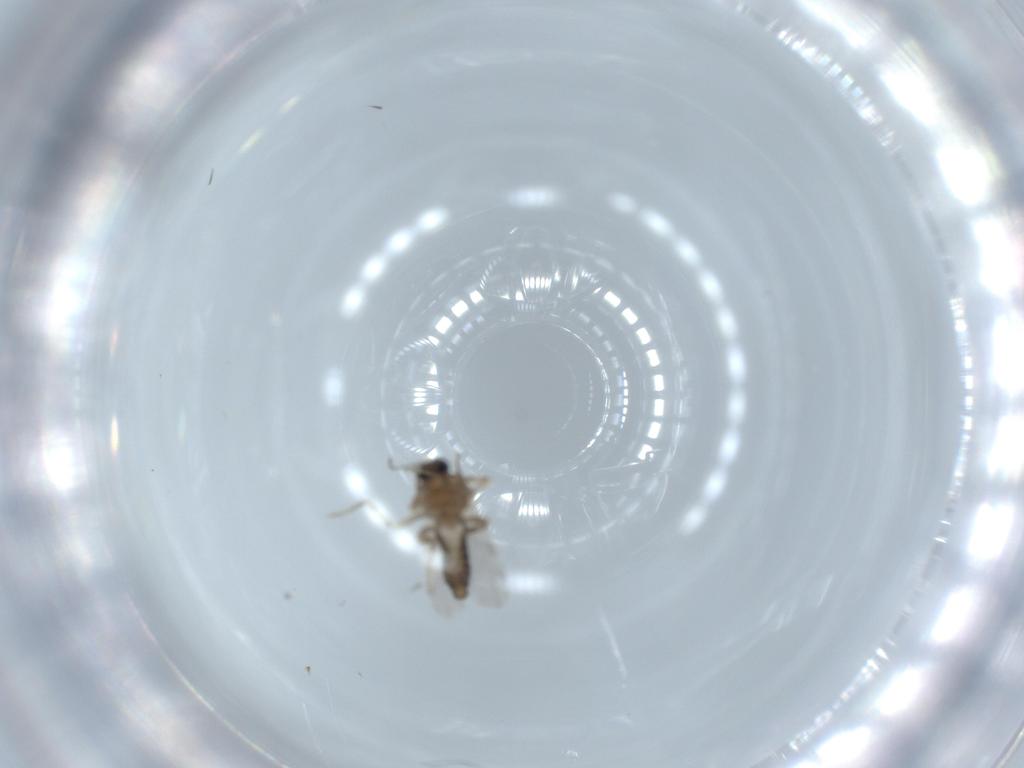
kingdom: Animalia
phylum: Arthropoda
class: Insecta
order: Diptera
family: Ceratopogonidae
